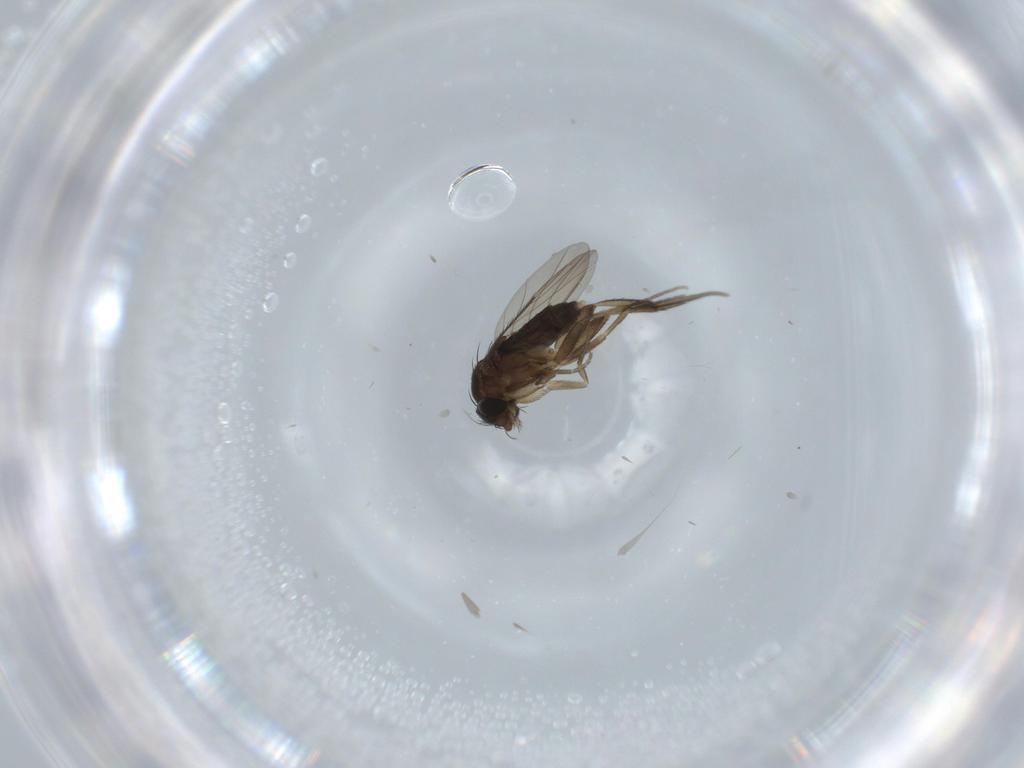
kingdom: Animalia
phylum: Arthropoda
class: Insecta
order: Diptera
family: Phoridae
